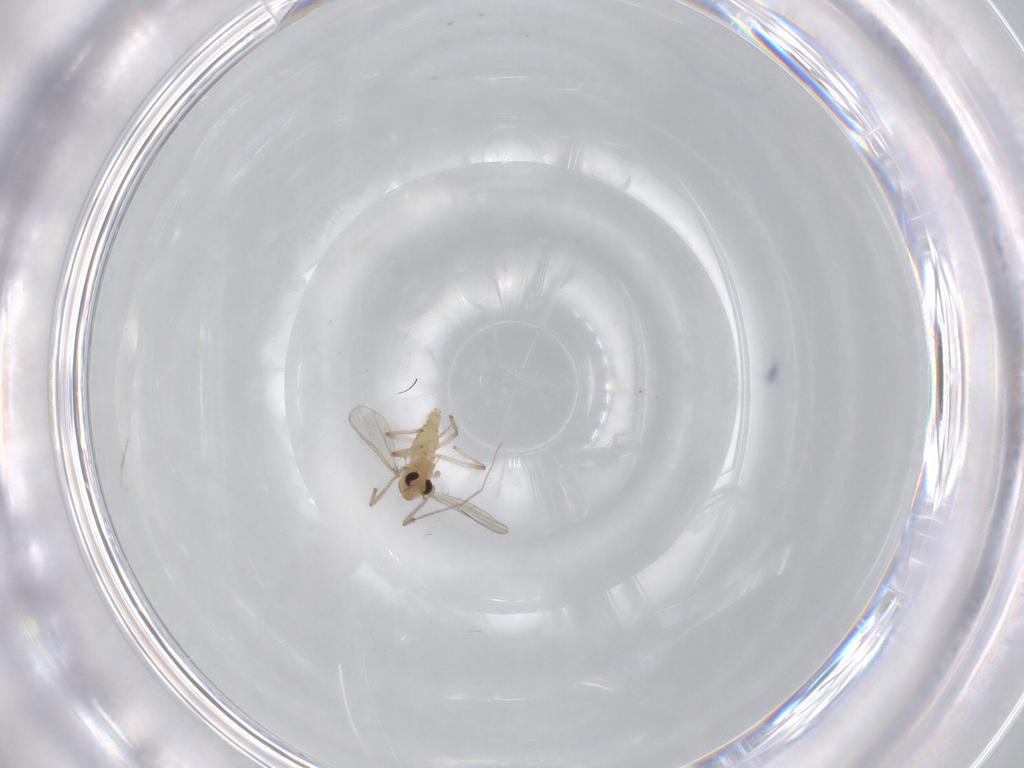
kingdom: Animalia
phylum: Arthropoda
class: Insecta
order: Diptera
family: Chironomidae
